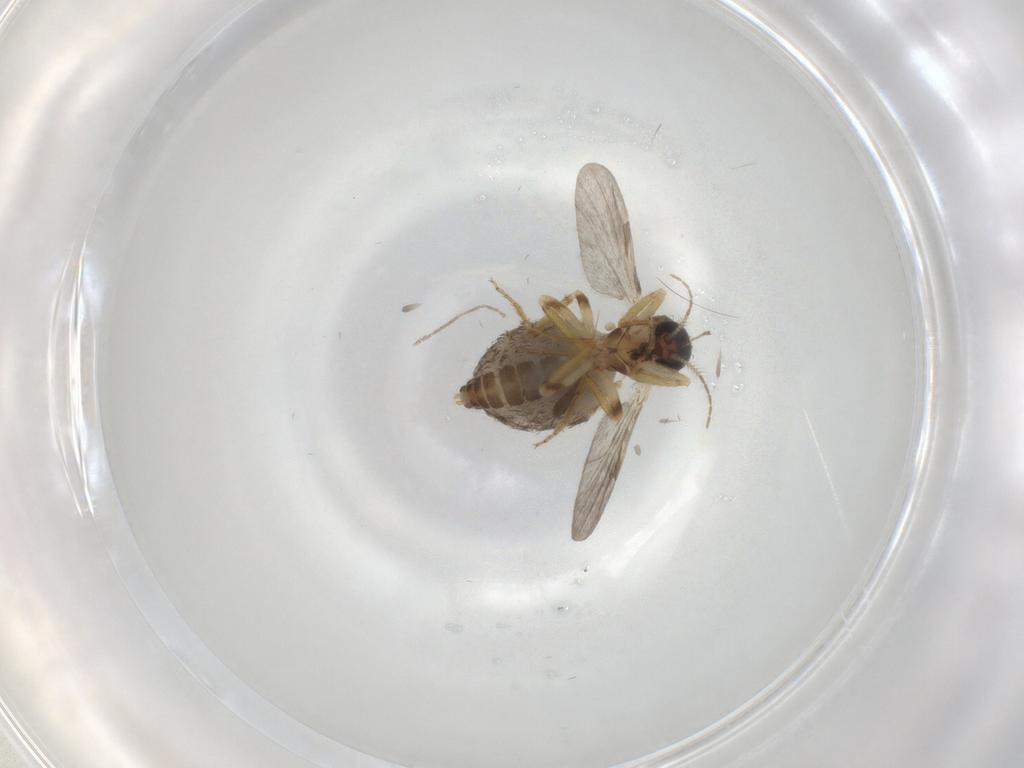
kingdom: Animalia
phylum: Arthropoda
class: Insecta
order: Diptera
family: Ceratopogonidae
